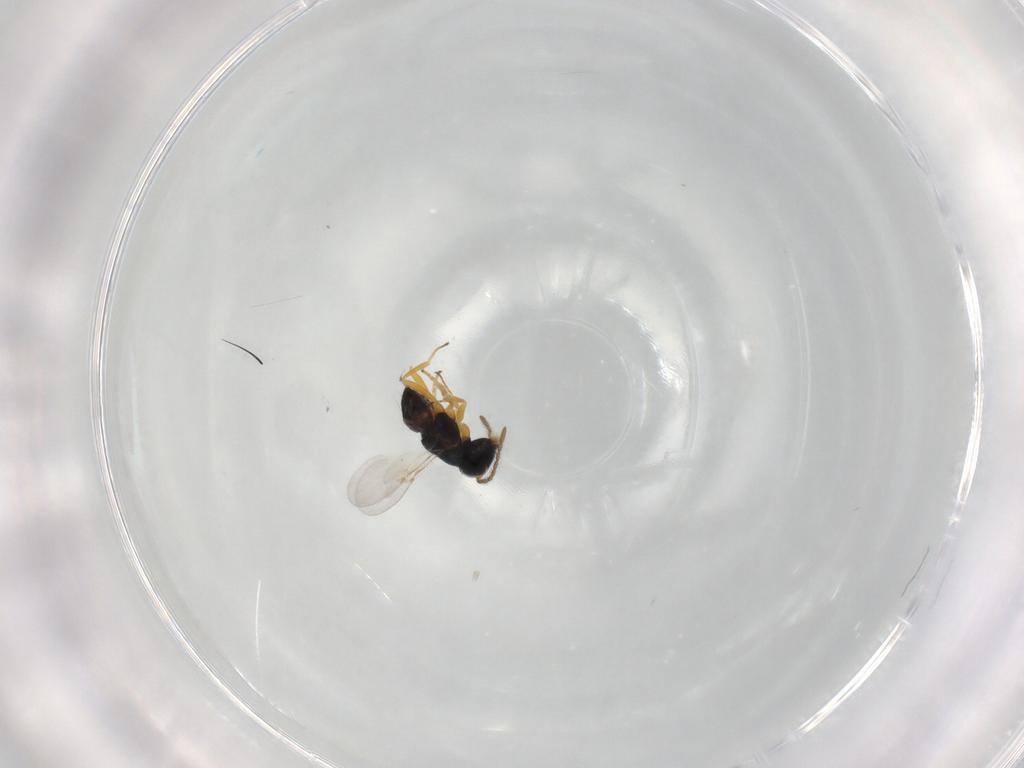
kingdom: Animalia
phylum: Arthropoda
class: Insecta
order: Hymenoptera
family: Encyrtidae
